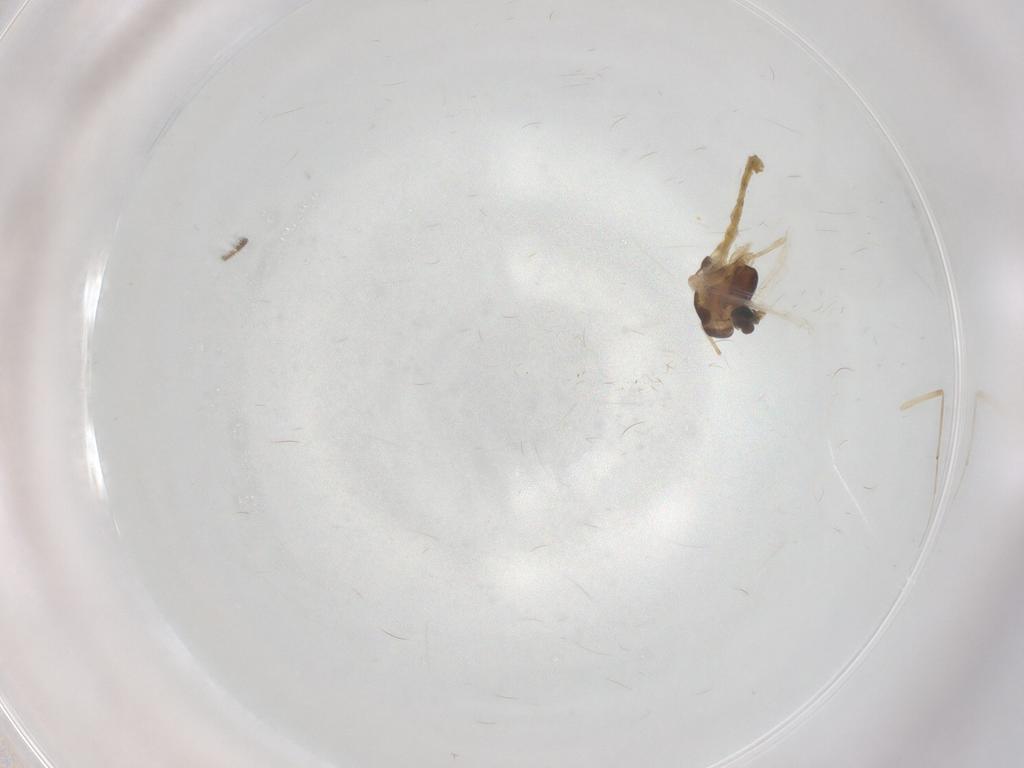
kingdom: Animalia
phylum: Arthropoda
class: Insecta
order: Diptera
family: Chironomidae
